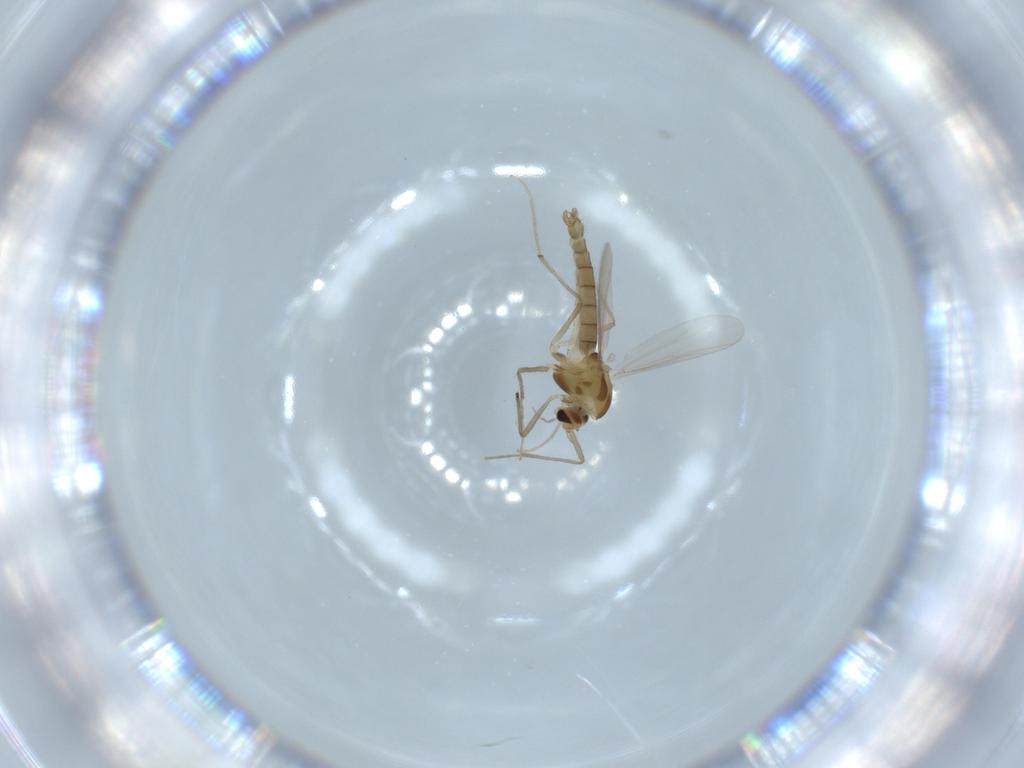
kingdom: Animalia
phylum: Arthropoda
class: Insecta
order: Diptera
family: Chironomidae
